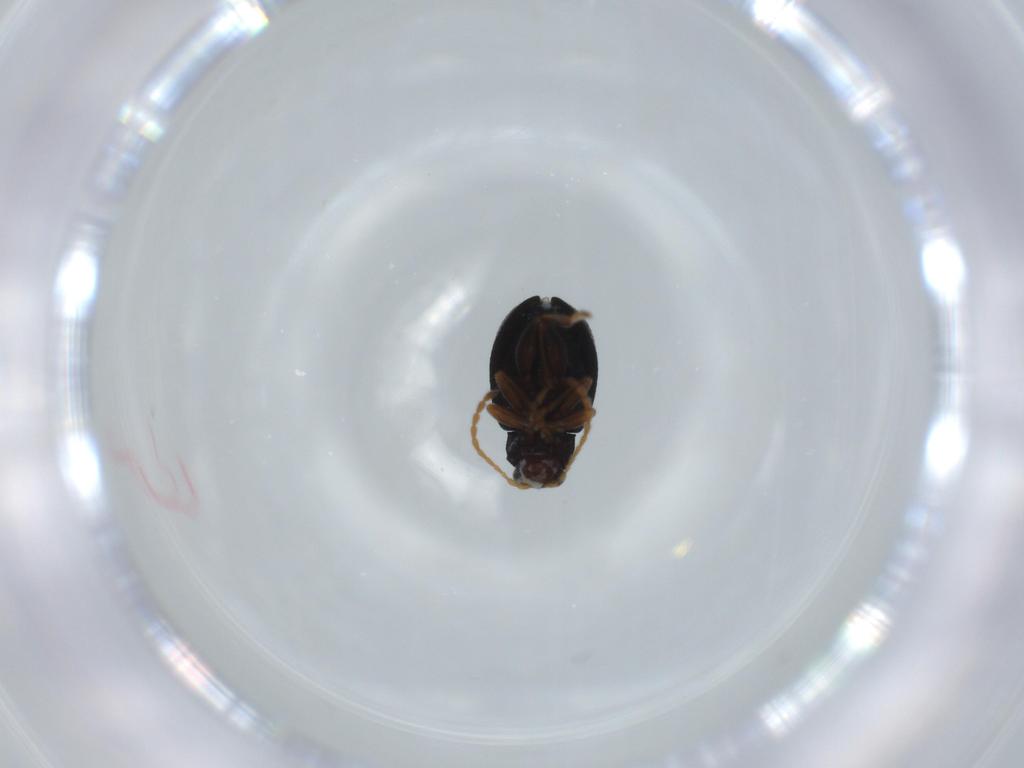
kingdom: Animalia
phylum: Arthropoda
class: Insecta
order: Coleoptera
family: Chrysomelidae
